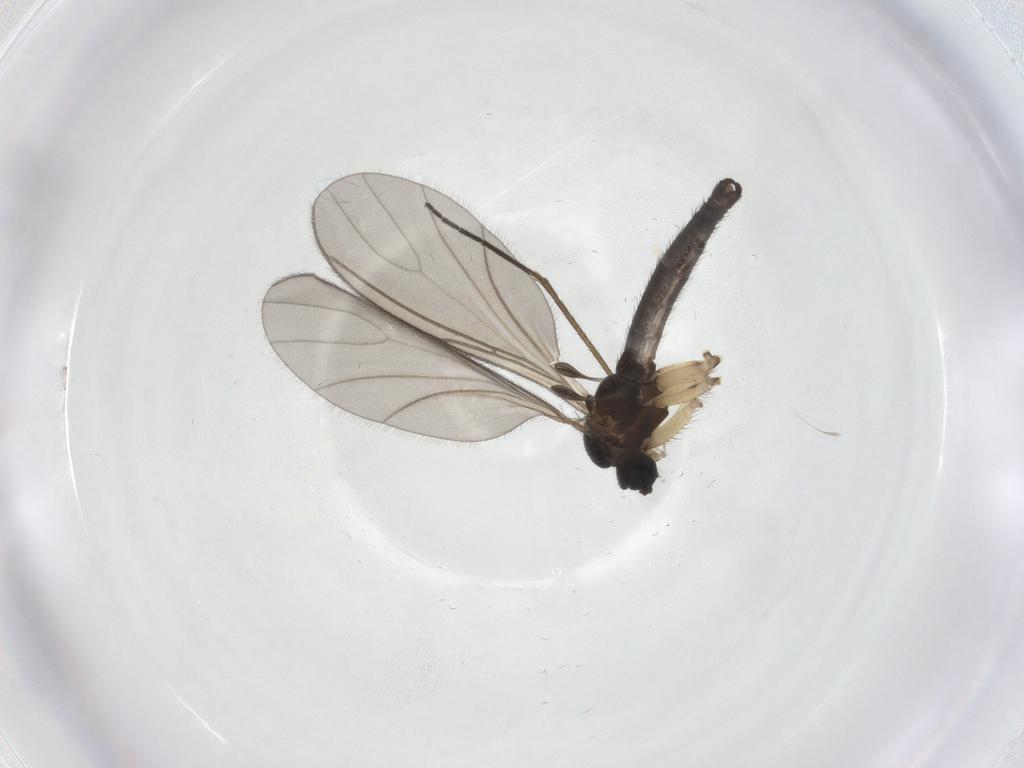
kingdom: Animalia
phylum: Arthropoda
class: Insecta
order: Diptera
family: Sciaridae
